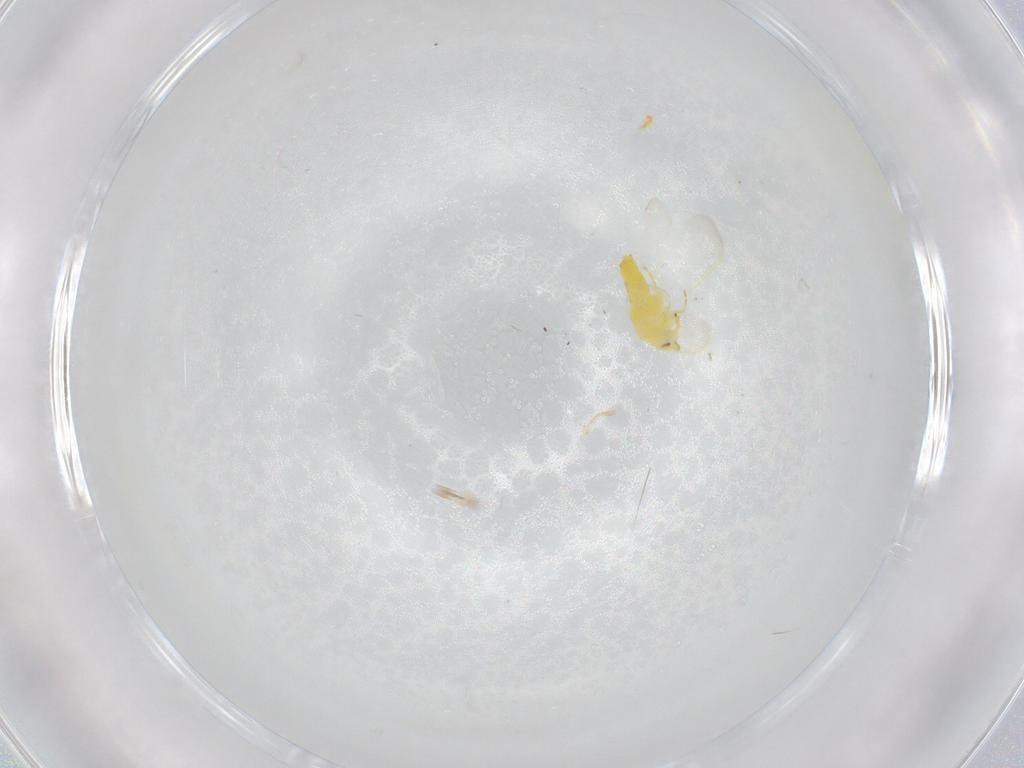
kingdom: Animalia
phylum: Arthropoda
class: Insecta
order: Hemiptera
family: Aleyrodidae
